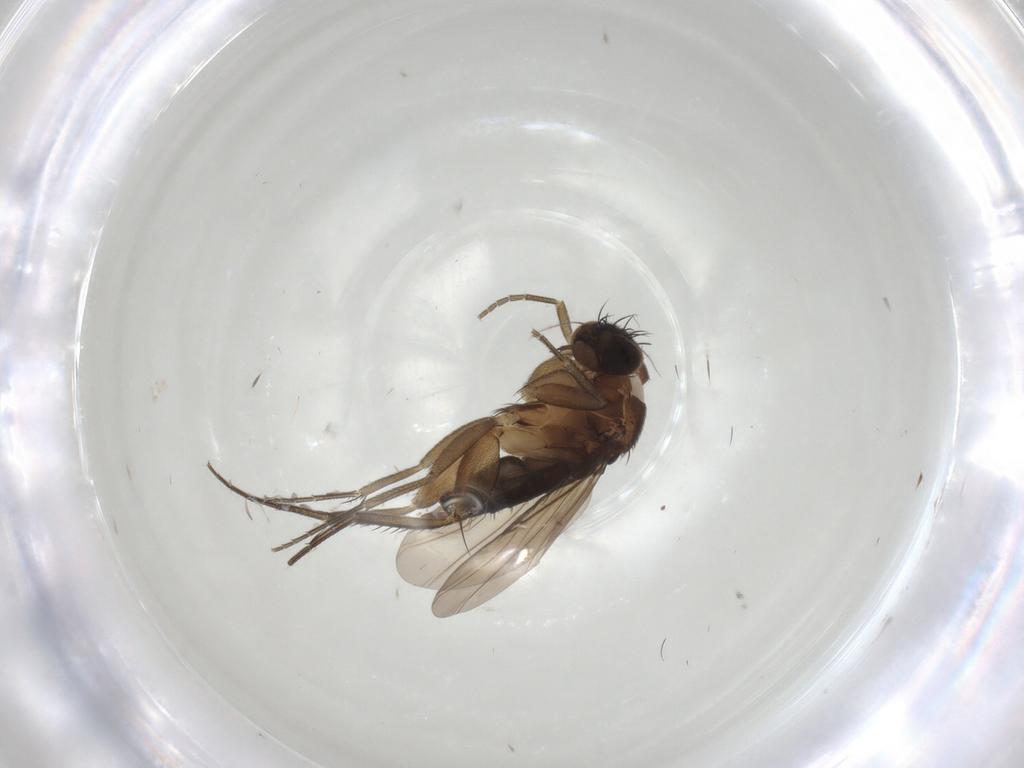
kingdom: Animalia
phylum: Arthropoda
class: Insecta
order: Diptera
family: Phoridae
